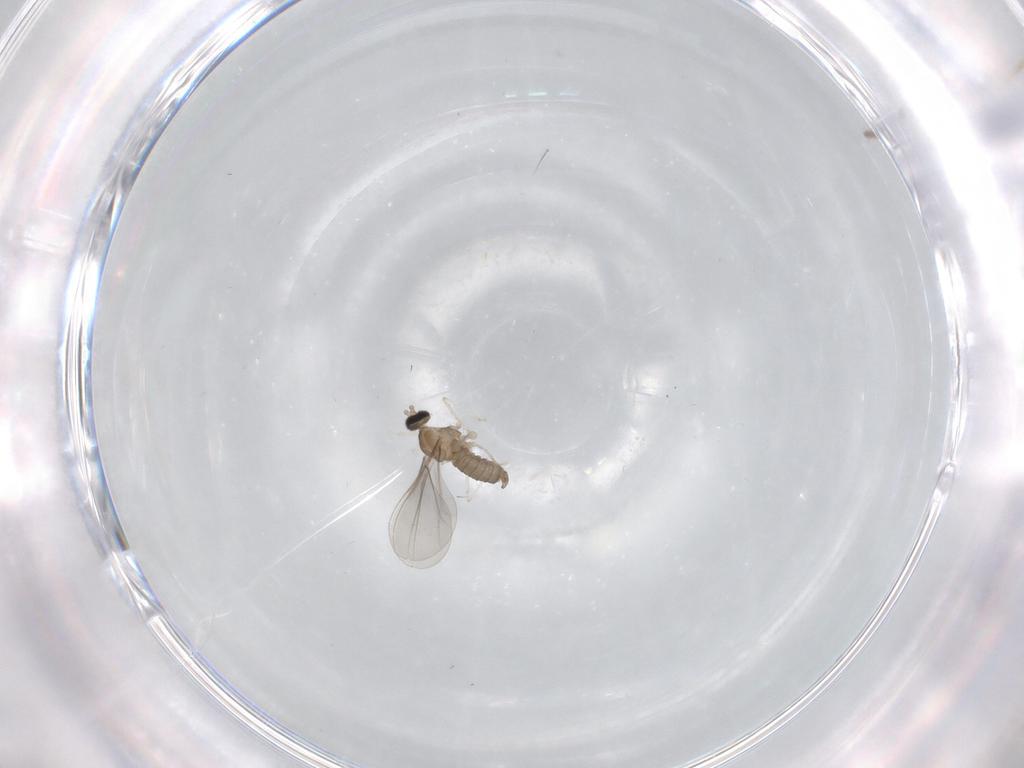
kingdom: Animalia
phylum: Arthropoda
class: Insecta
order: Diptera
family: Cecidomyiidae
